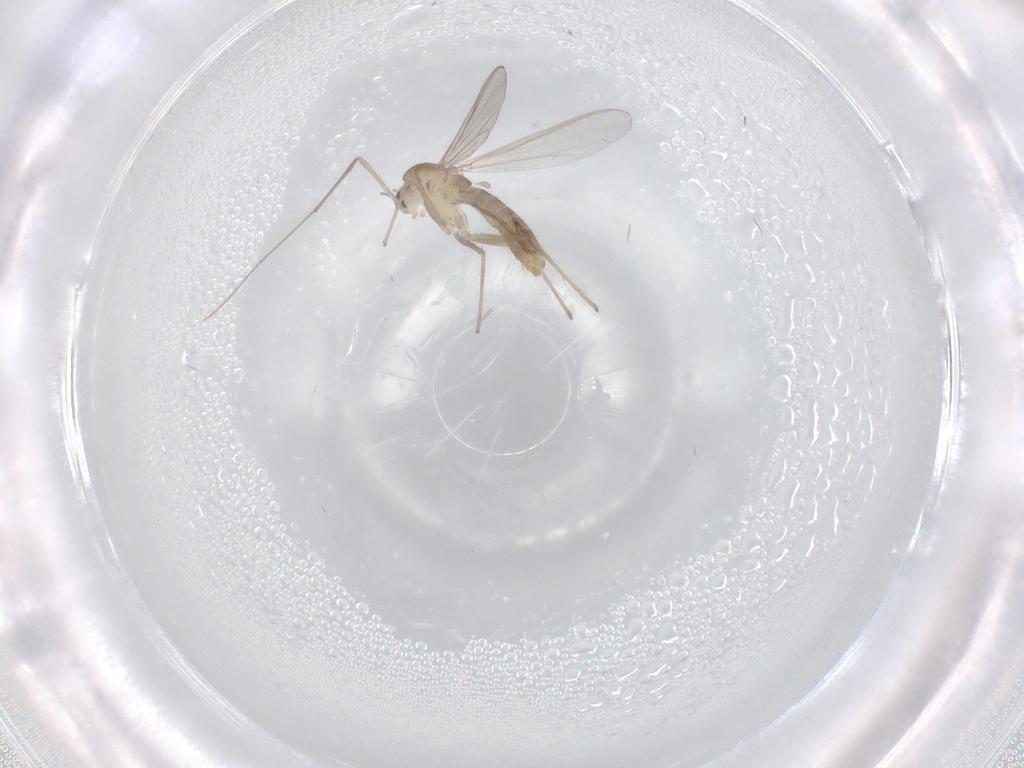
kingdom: Animalia
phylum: Arthropoda
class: Insecta
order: Diptera
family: Chironomidae
